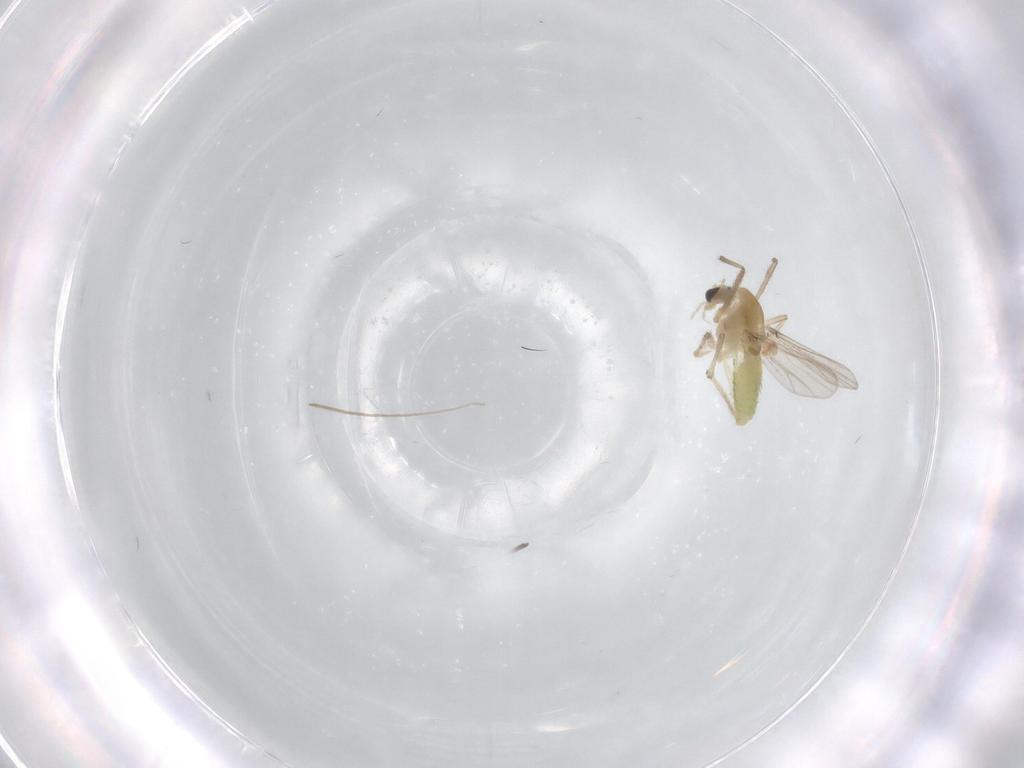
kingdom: Animalia
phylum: Arthropoda
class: Insecta
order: Diptera
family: Chironomidae
